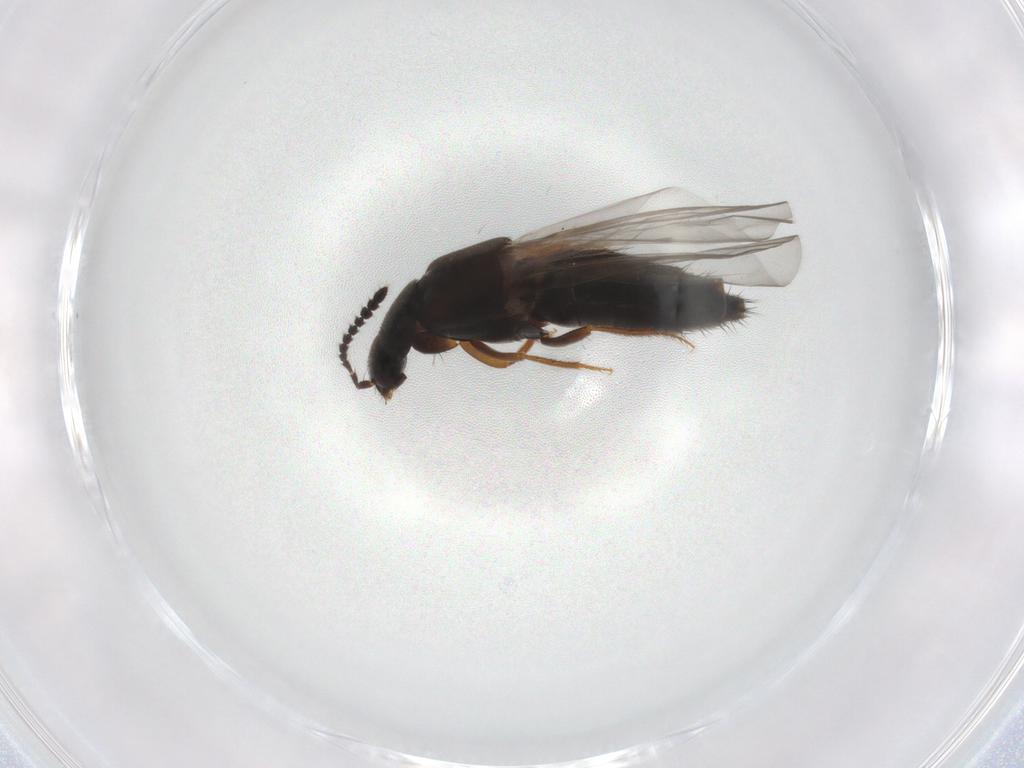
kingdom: Animalia
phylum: Arthropoda
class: Insecta
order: Coleoptera
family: Staphylinidae
